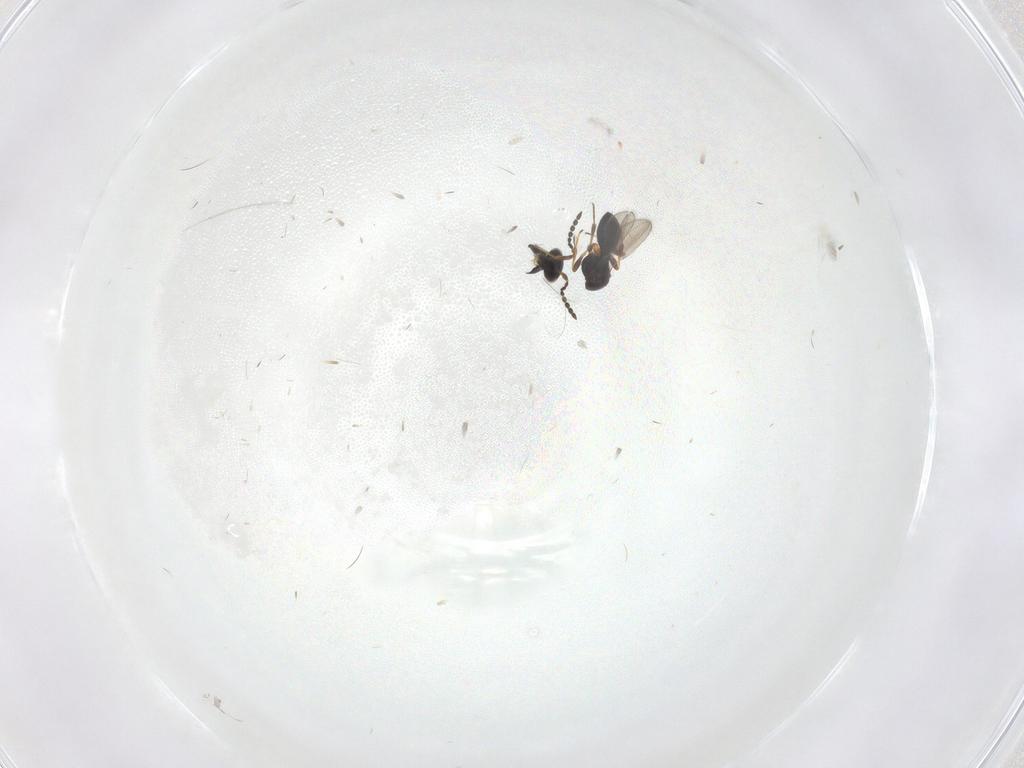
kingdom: Animalia
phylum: Arthropoda
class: Insecta
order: Hymenoptera
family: Platygastridae
